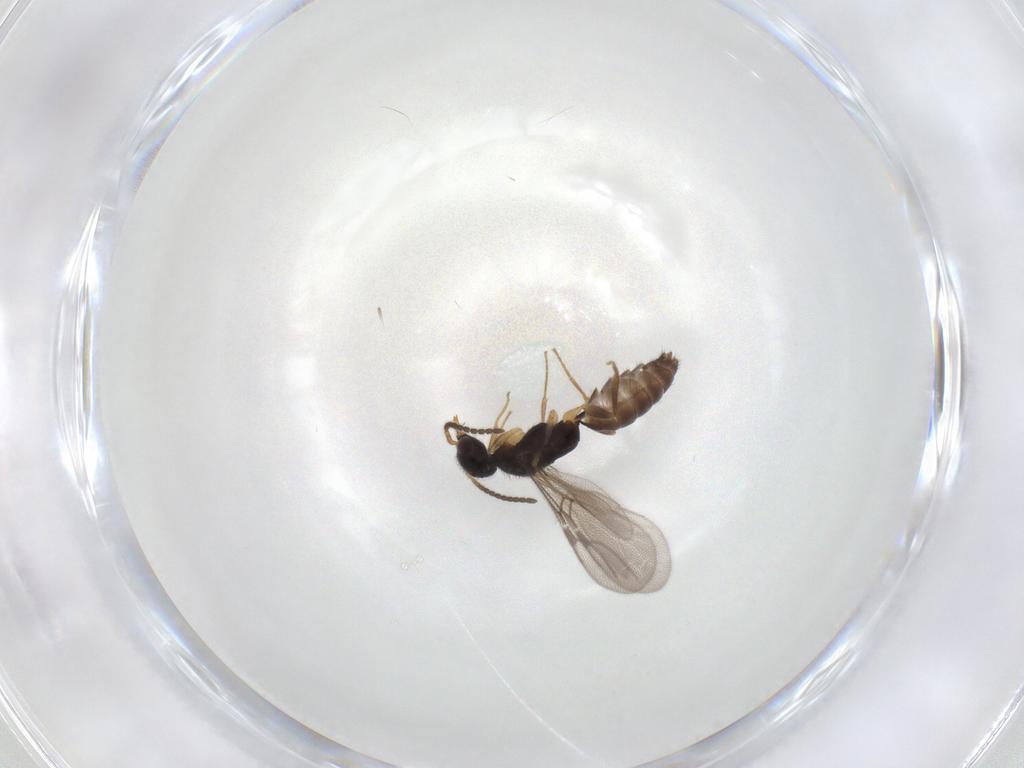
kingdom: Animalia
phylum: Arthropoda
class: Insecta
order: Hymenoptera
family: Bethylidae
